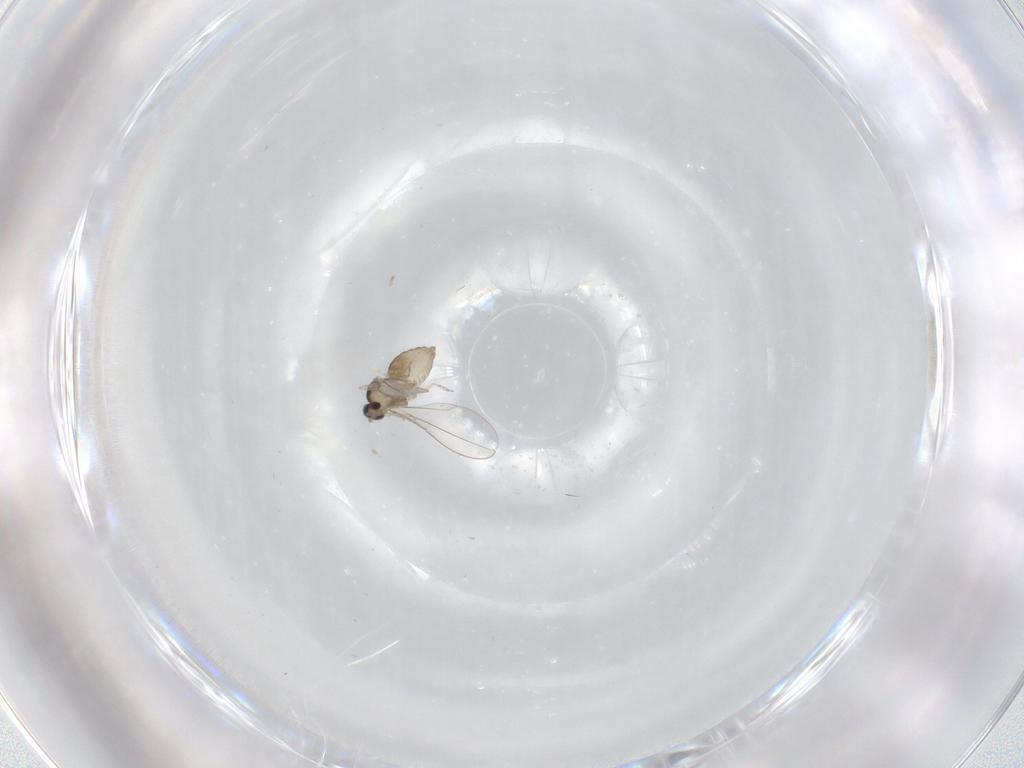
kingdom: Animalia
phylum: Arthropoda
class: Insecta
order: Diptera
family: Cecidomyiidae
